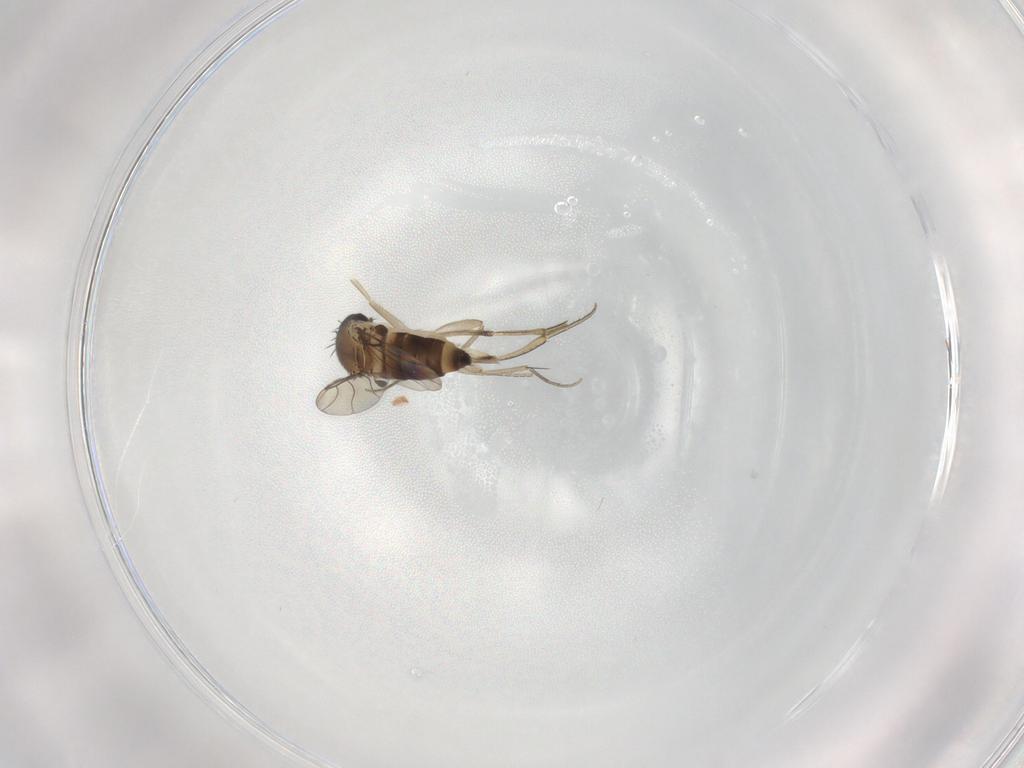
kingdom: Animalia
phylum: Arthropoda
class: Insecta
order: Diptera
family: Phoridae
